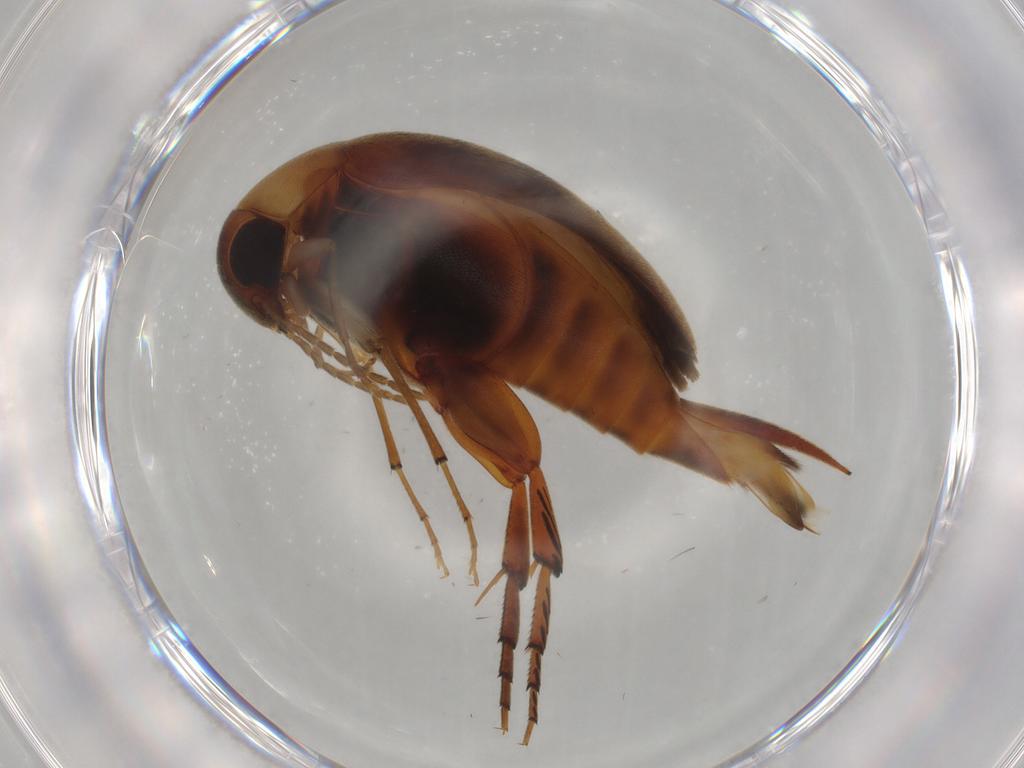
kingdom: Animalia
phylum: Arthropoda
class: Insecta
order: Coleoptera
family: Mordellidae
